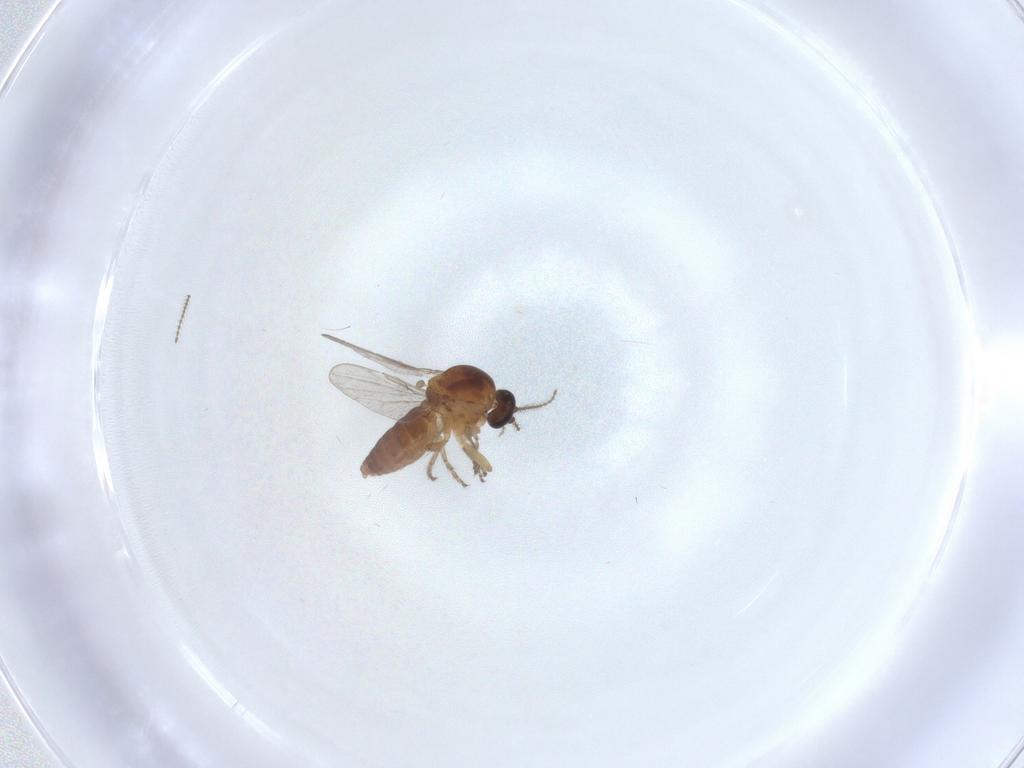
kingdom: Animalia
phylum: Arthropoda
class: Insecta
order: Diptera
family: Ceratopogonidae
